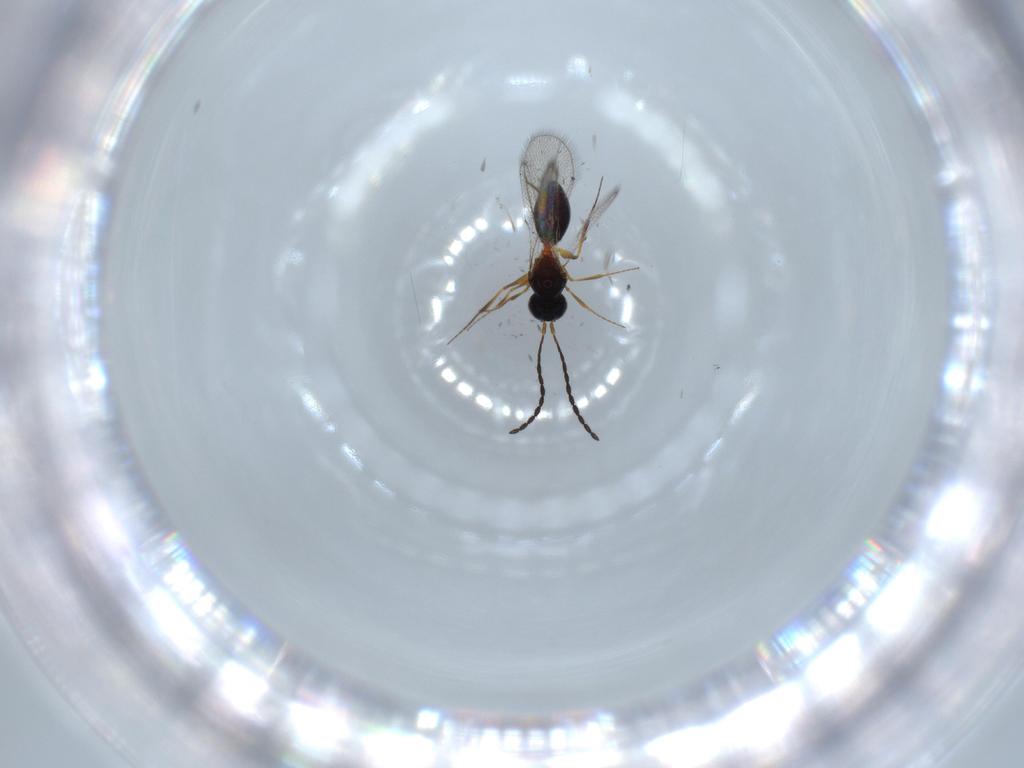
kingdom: Animalia
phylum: Arthropoda
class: Insecta
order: Hymenoptera
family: Figitidae
